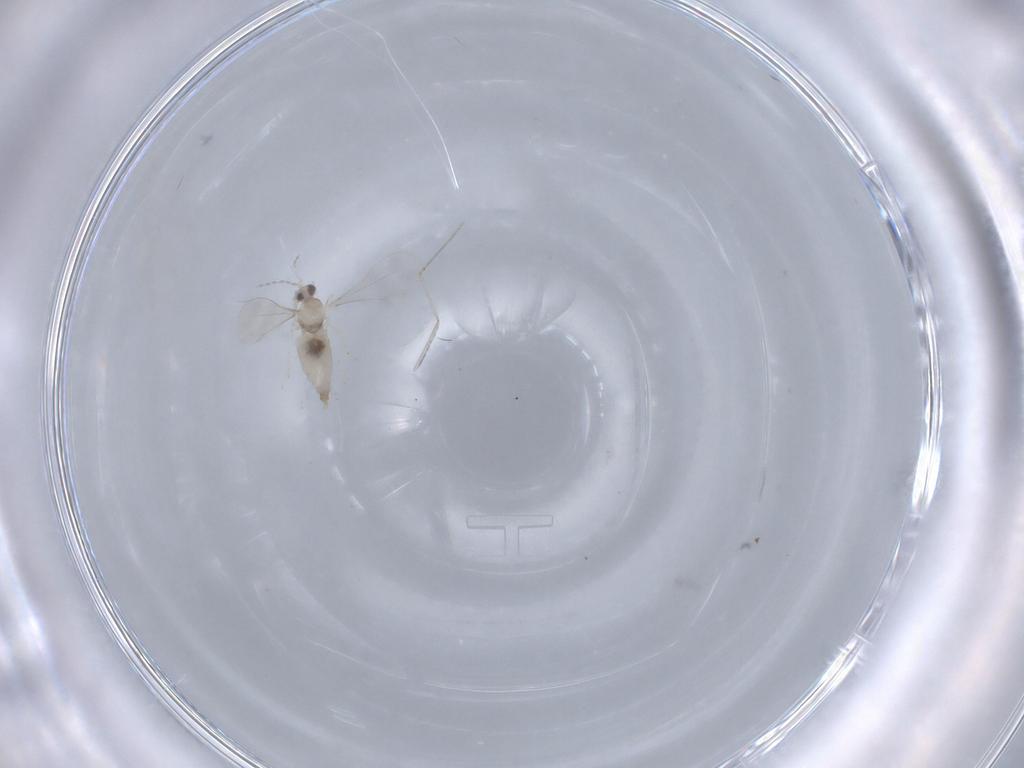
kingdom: Animalia
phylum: Arthropoda
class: Insecta
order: Diptera
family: Cecidomyiidae
